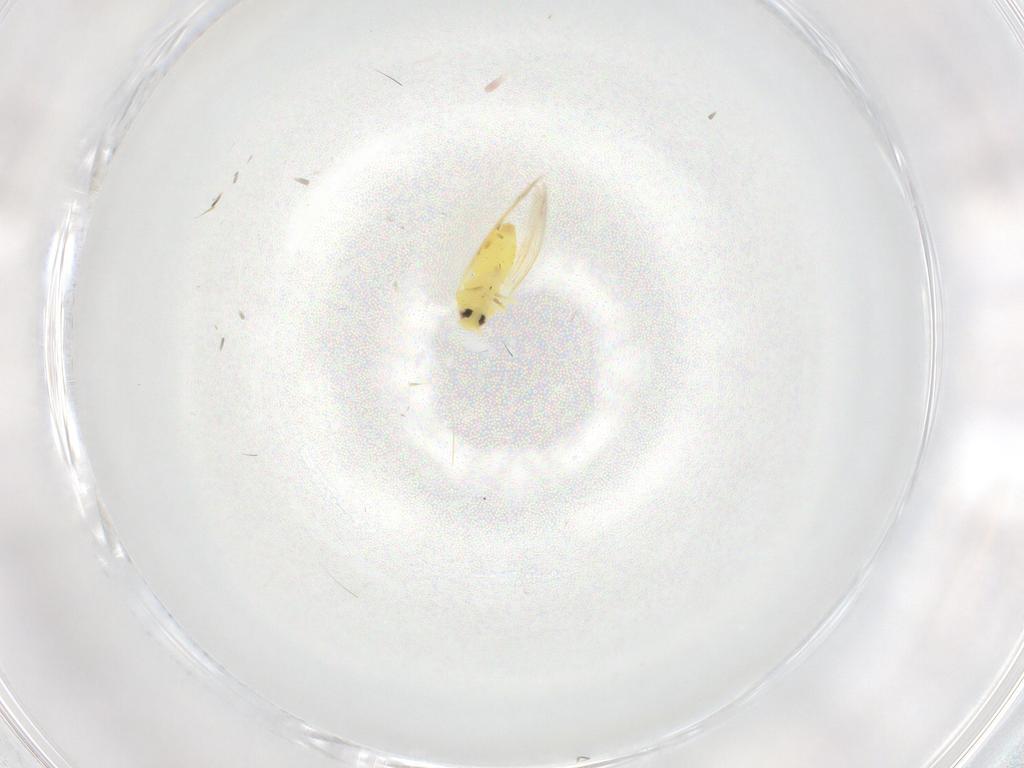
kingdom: Animalia
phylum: Arthropoda
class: Insecta
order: Hemiptera
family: Aleyrodidae
